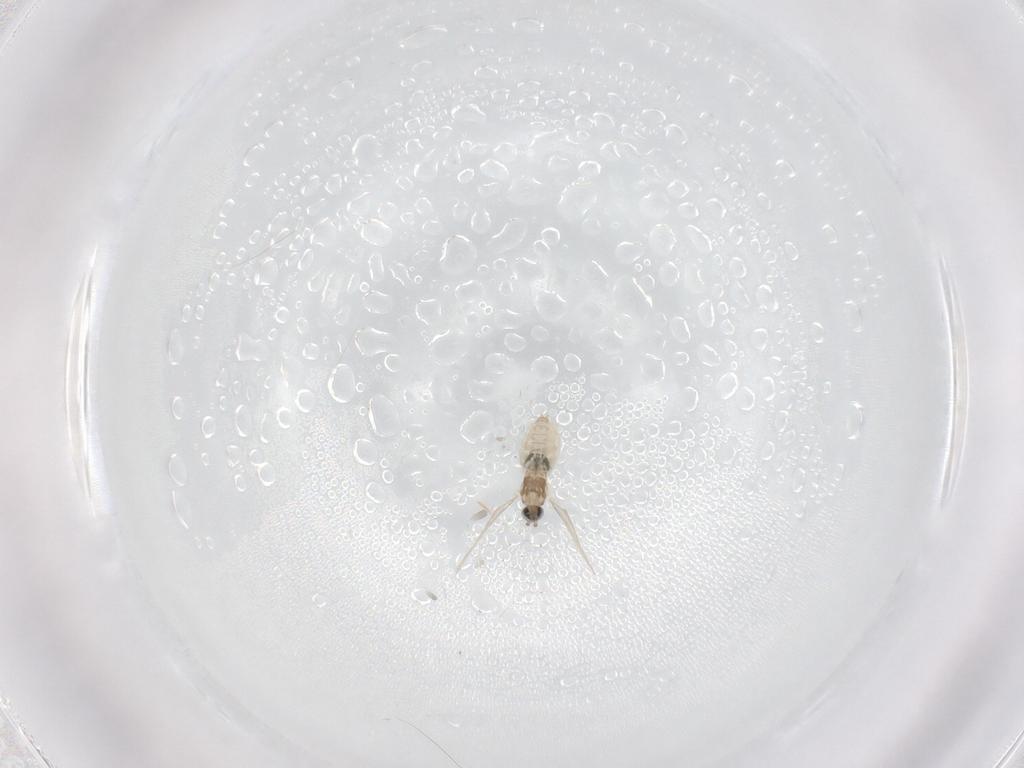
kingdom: Animalia
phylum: Arthropoda
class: Insecta
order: Diptera
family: Cecidomyiidae
